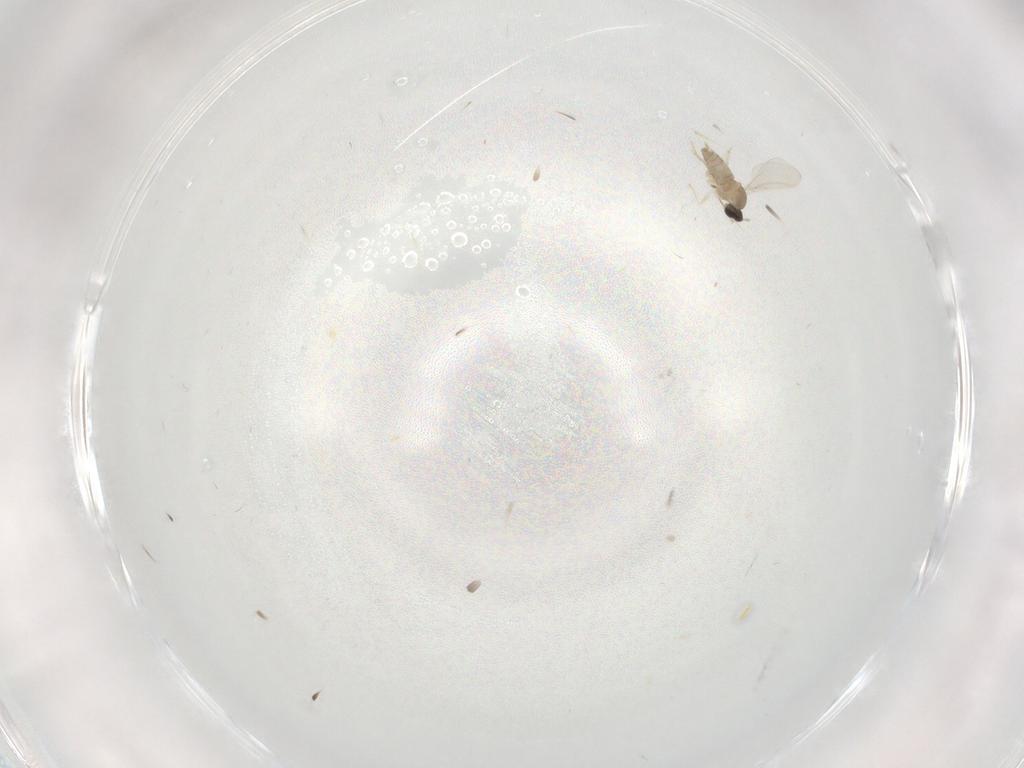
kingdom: Animalia
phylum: Arthropoda
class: Insecta
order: Diptera
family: Cecidomyiidae
